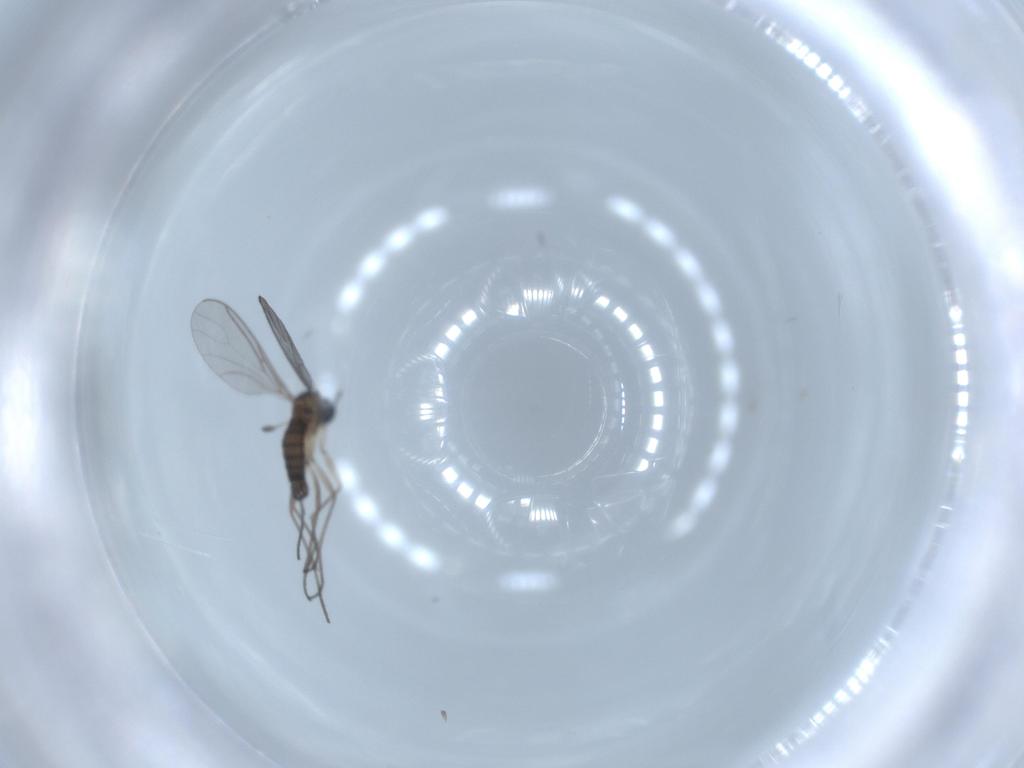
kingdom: Animalia
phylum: Arthropoda
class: Insecta
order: Diptera
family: Sciaridae
